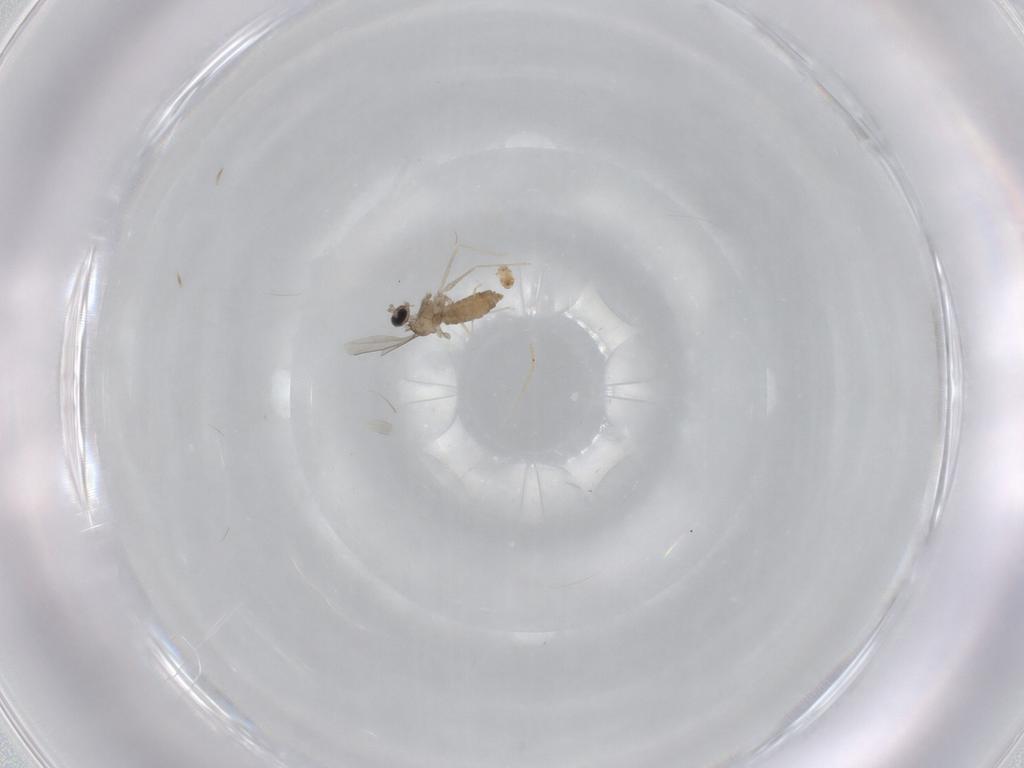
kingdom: Animalia
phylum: Arthropoda
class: Insecta
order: Diptera
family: Cecidomyiidae
